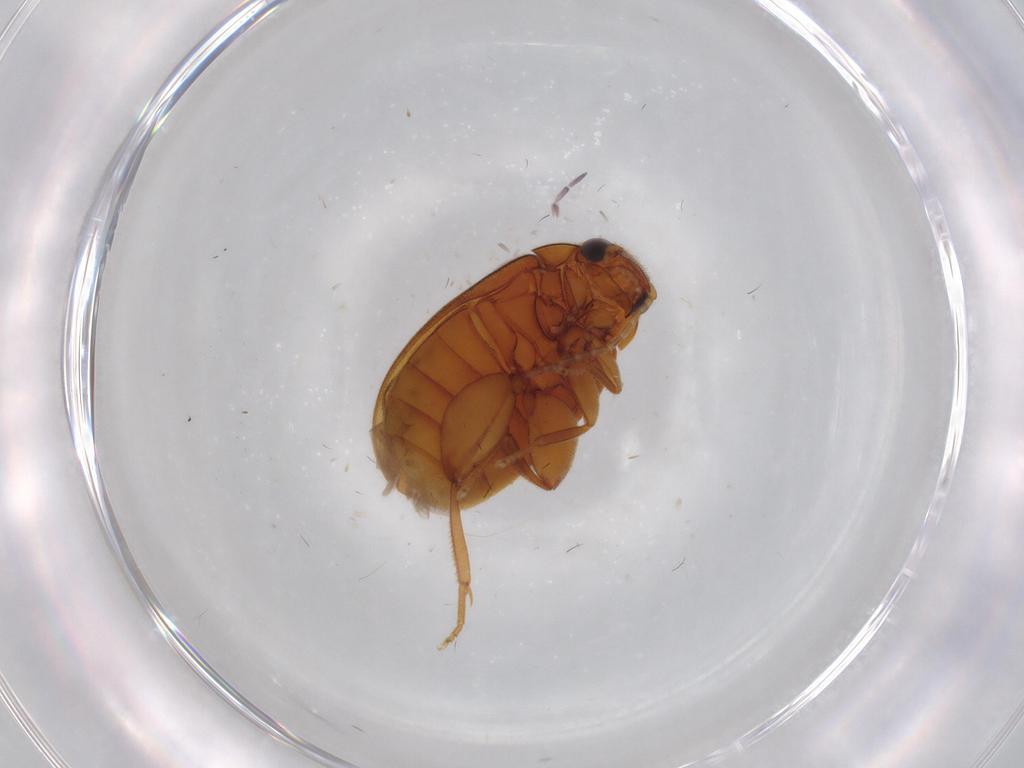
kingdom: Animalia
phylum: Arthropoda
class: Insecta
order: Coleoptera
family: Scirtidae
